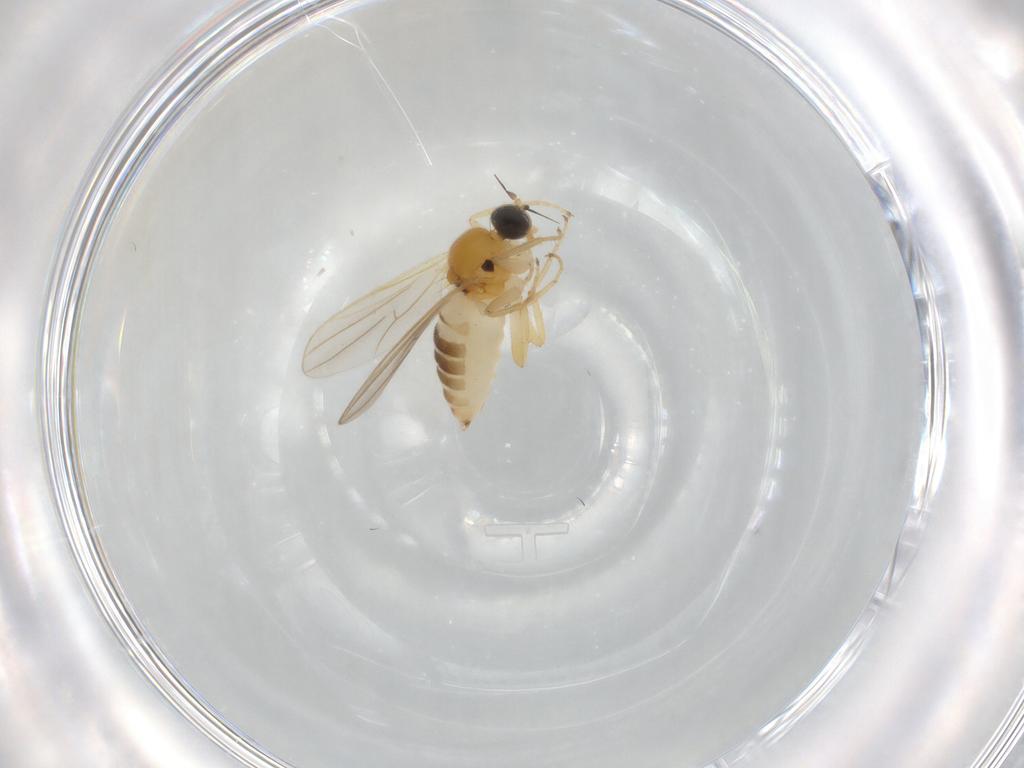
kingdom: Animalia
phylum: Arthropoda
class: Insecta
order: Diptera
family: Hybotidae
